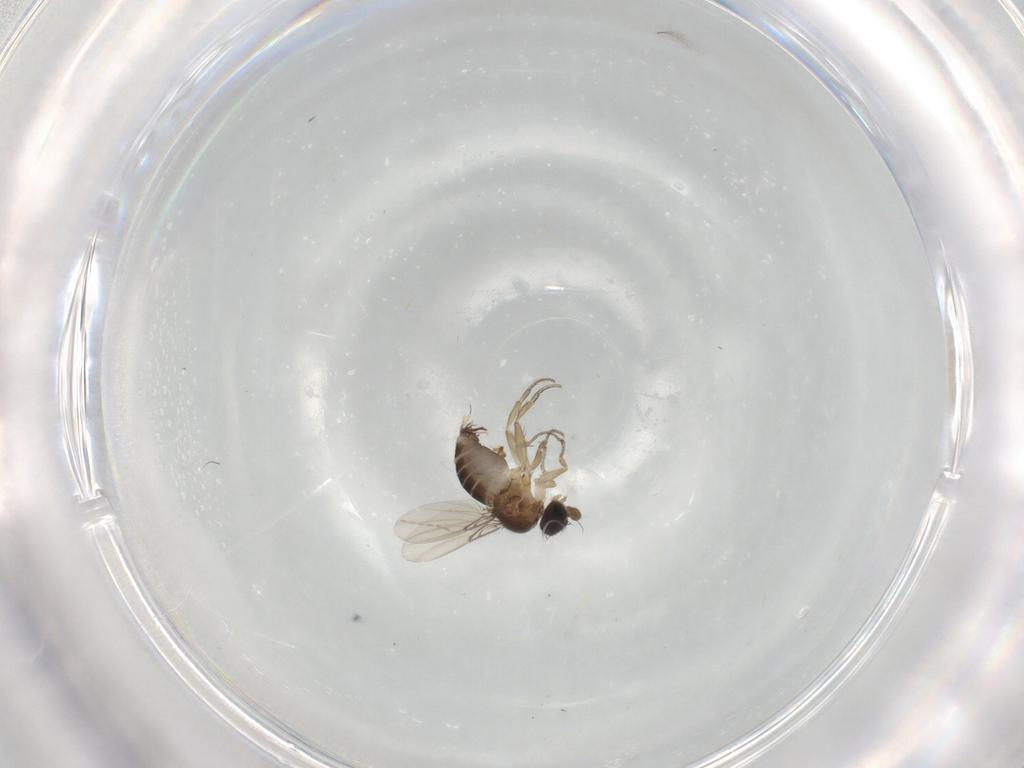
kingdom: Animalia
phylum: Arthropoda
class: Insecta
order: Diptera
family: Phoridae
